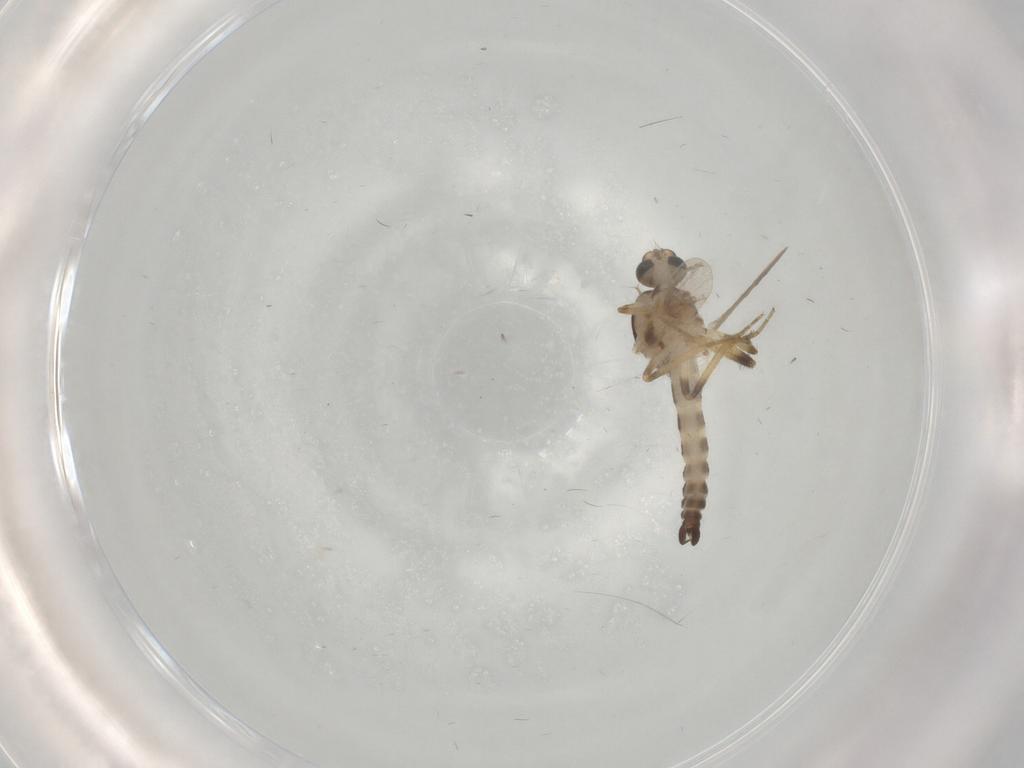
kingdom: Animalia
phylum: Arthropoda
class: Insecta
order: Diptera
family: Ceratopogonidae
